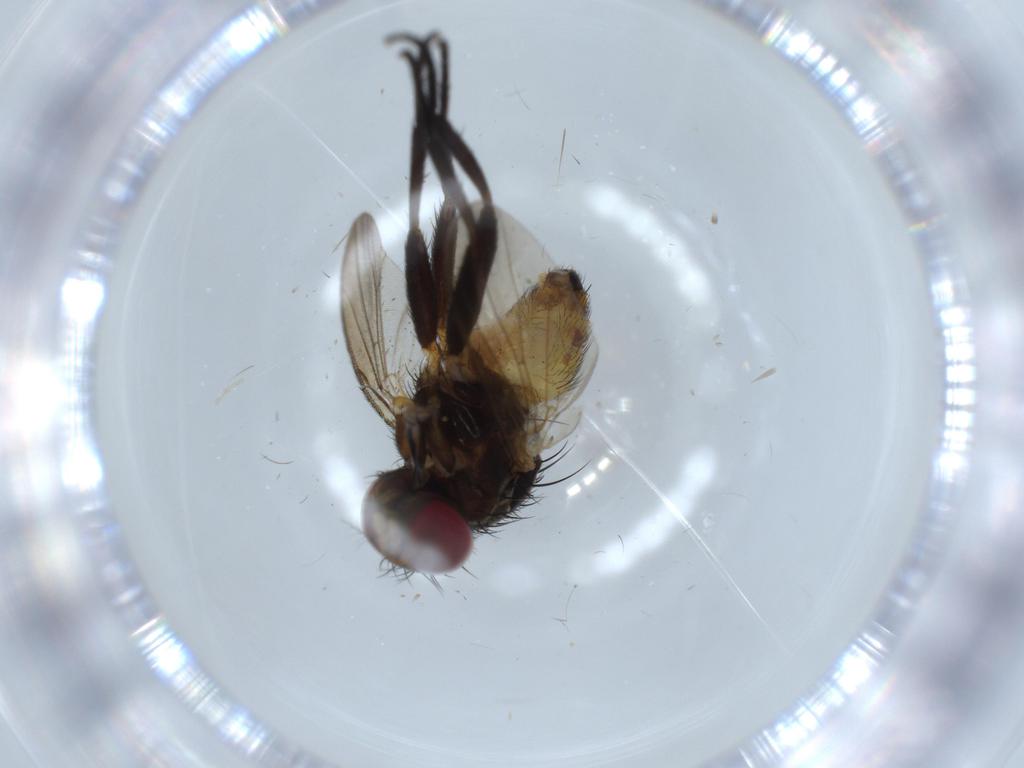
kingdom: Animalia
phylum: Arthropoda
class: Insecta
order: Diptera
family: Anthomyiidae
